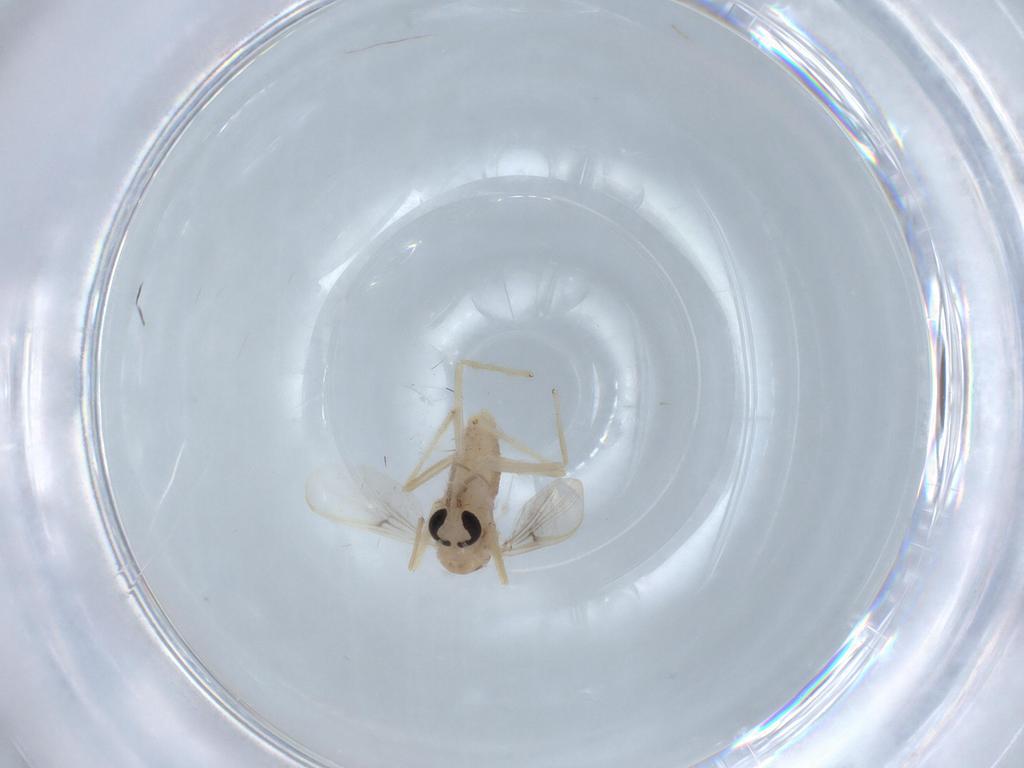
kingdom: Animalia
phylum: Arthropoda
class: Insecta
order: Diptera
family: Chironomidae
